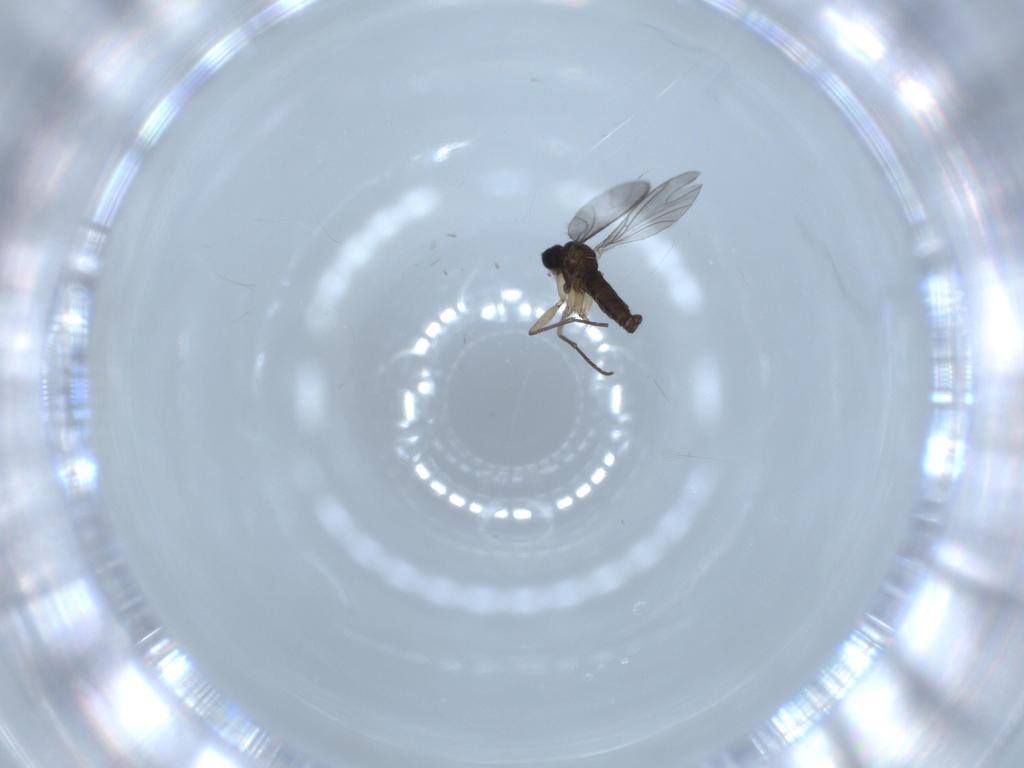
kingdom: Animalia
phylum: Arthropoda
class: Insecta
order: Diptera
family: Sciaridae
